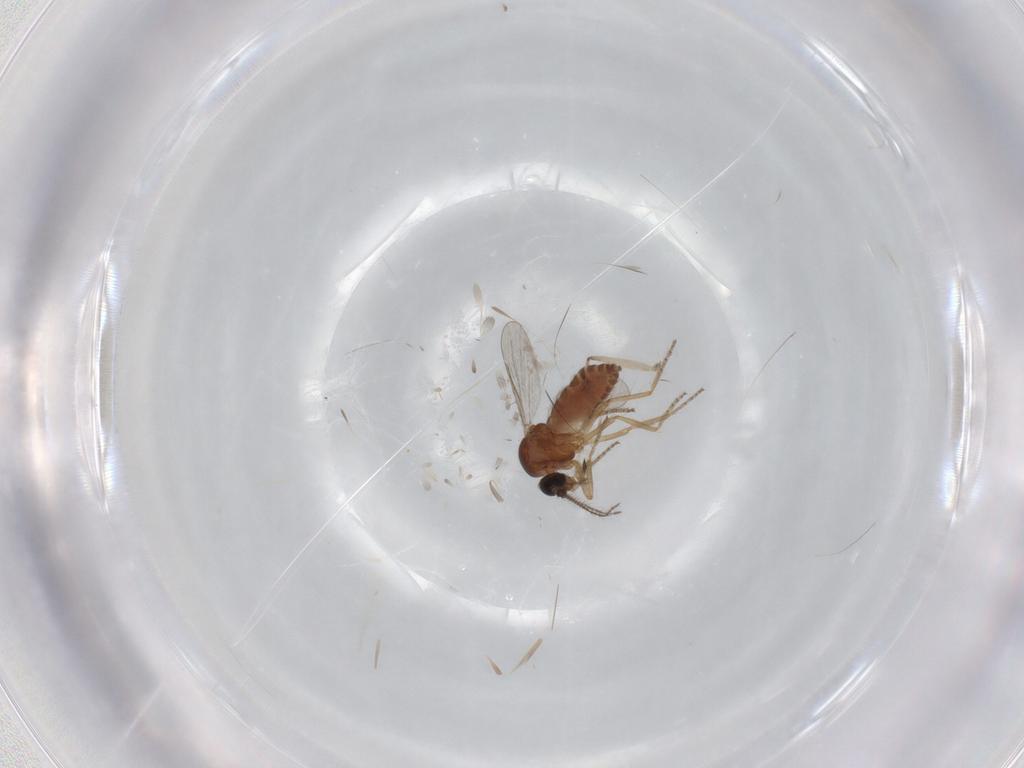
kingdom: Animalia
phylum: Arthropoda
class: Insecta
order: Diptera
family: Ceratopogonidae
